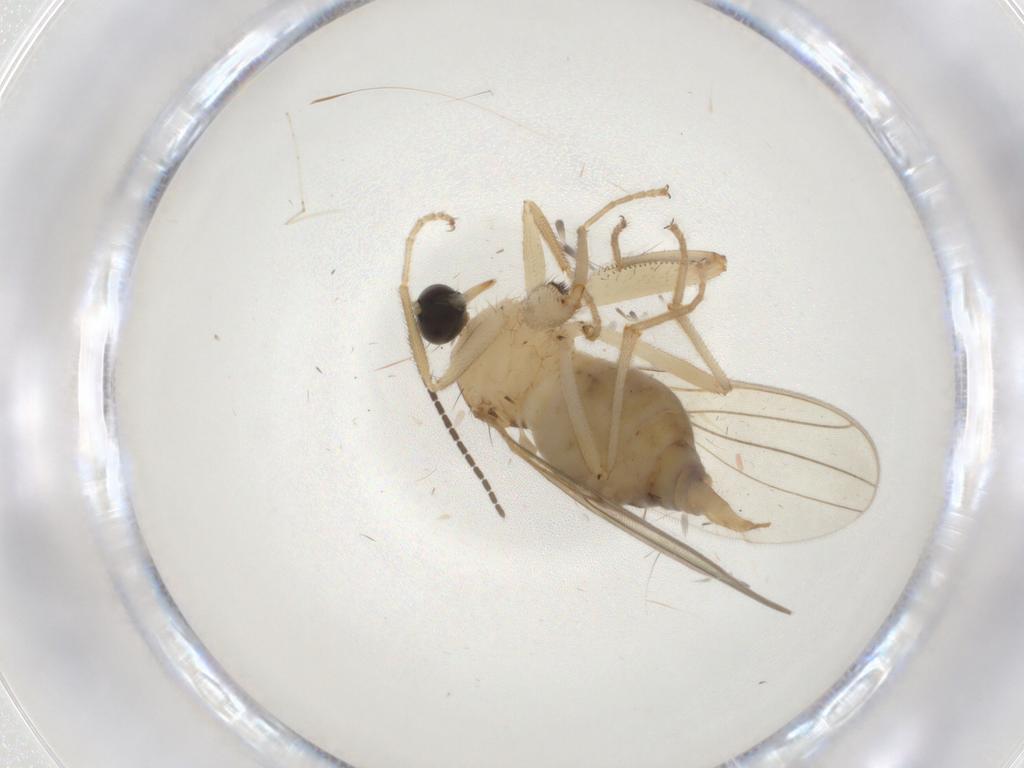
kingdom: Animalia
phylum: Arthropoda
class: Insecta
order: Diptera
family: Hybotidae
